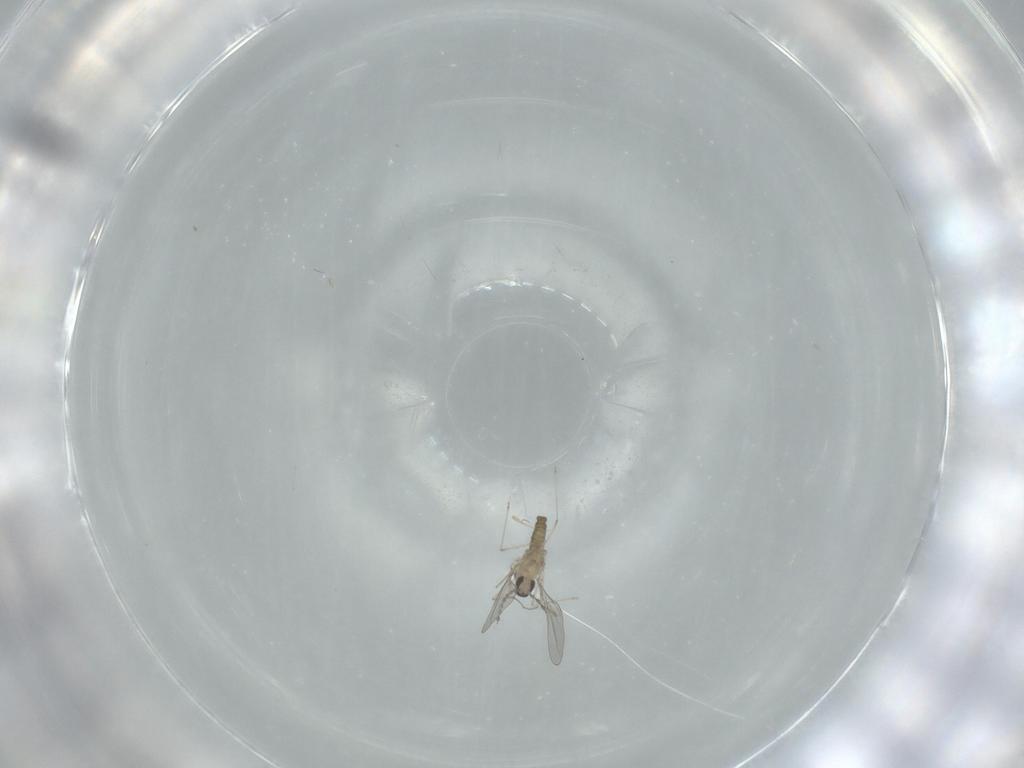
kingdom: Animalia
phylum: Arthropoda
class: Insecta
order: Diptera
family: Cecidomyiidae
